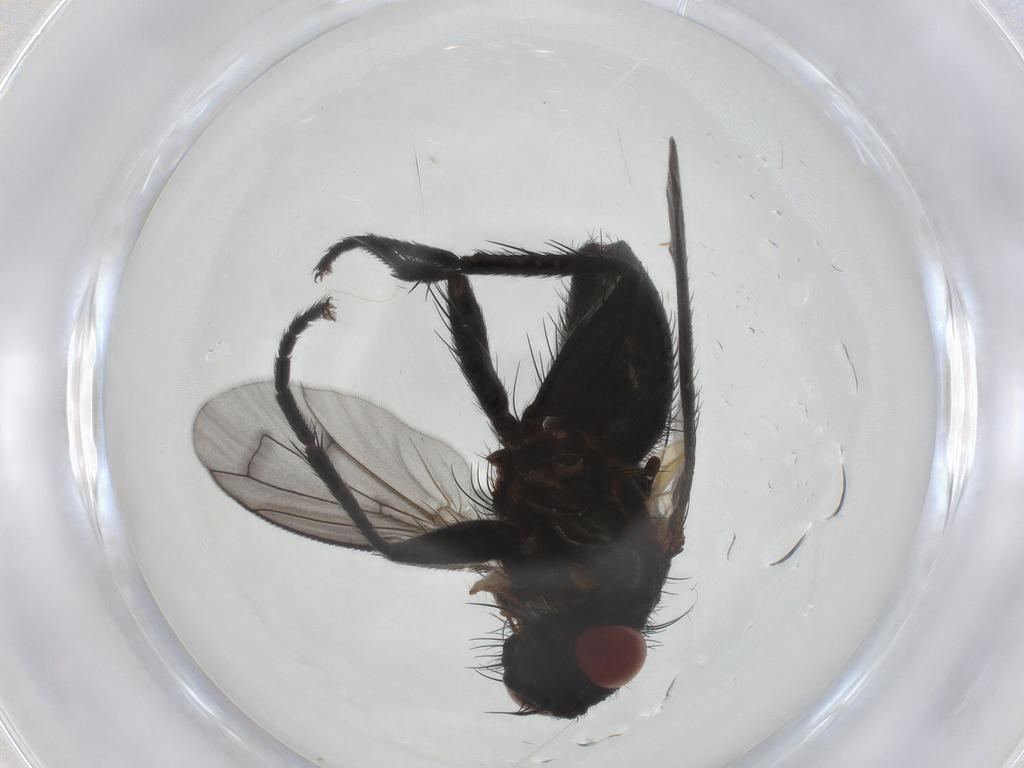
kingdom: Animalia
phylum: Arthropoda
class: Insecta
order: Diptera
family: Tachinidae
